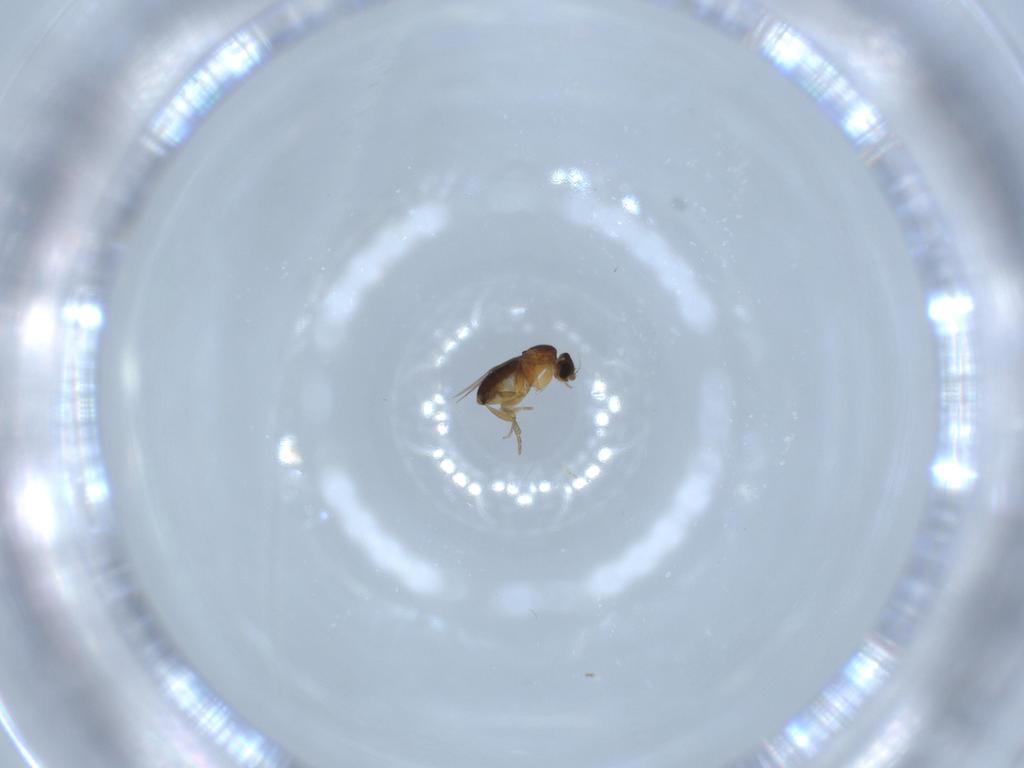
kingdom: Animalia
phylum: Arthropoda
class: Insecta
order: Diptera
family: Phoridae
